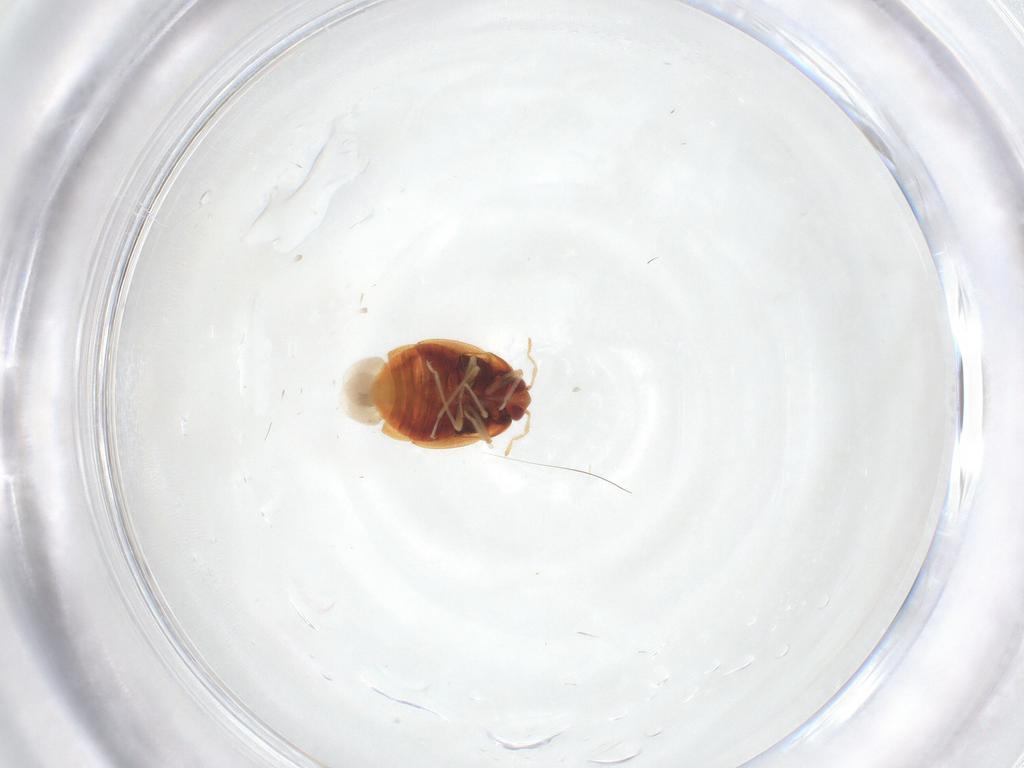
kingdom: Animalia
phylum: Arthropoda
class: Insecta
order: Hemiptera
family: Anthocoridae
